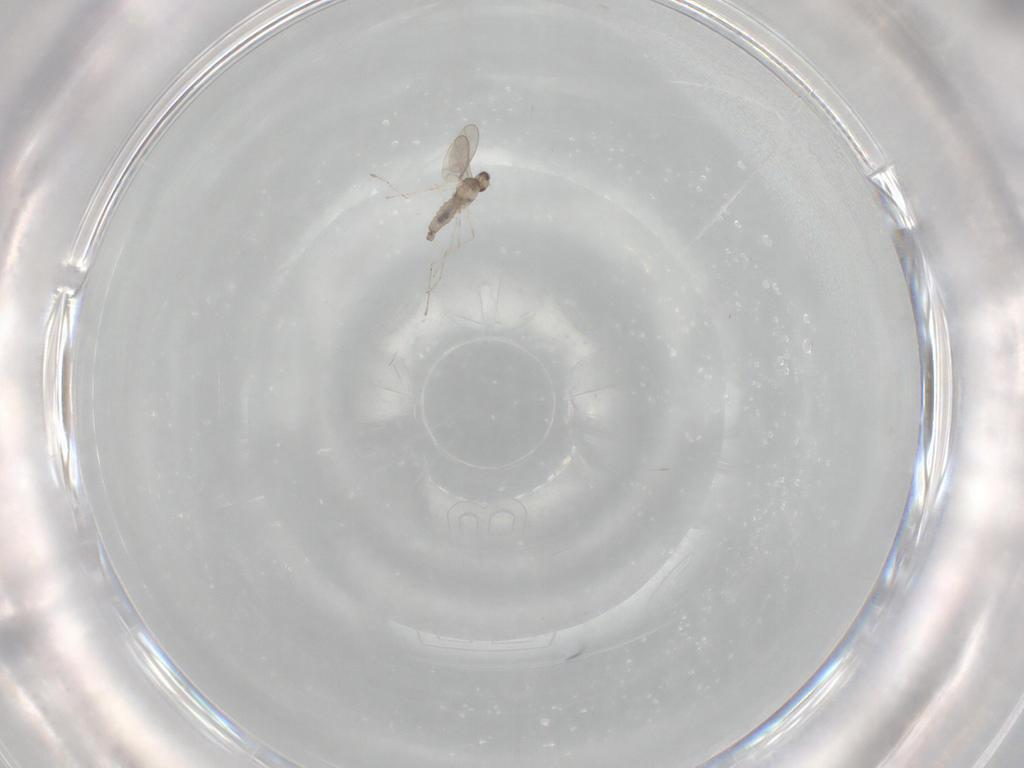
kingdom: Animalia
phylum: Arthropoda
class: Insecta
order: Diptera
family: Cecidomyiidae
